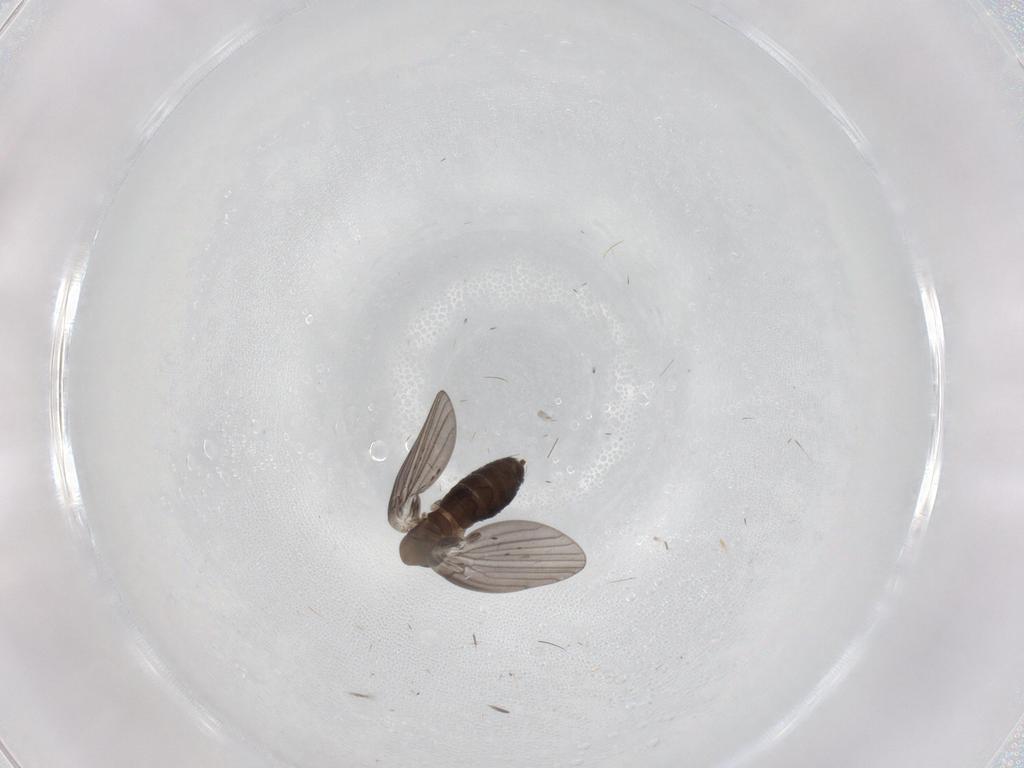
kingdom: Animalia
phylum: Arthropoda
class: Insecta
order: Diptera
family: Psychodidae
